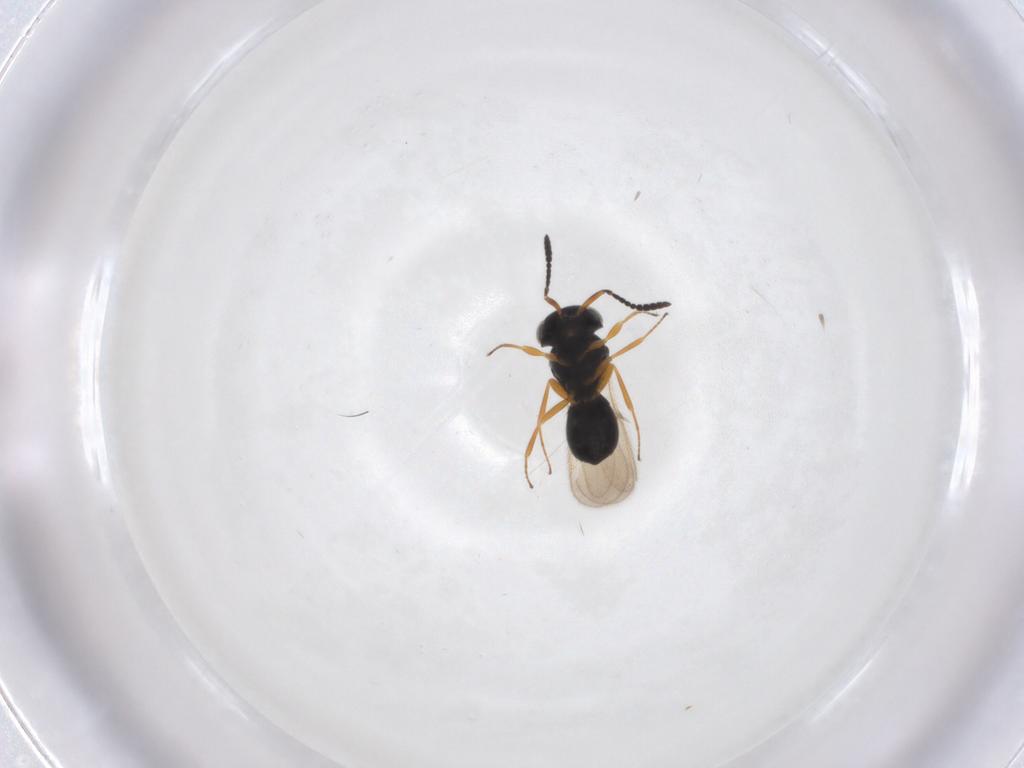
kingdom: Animalia
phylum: Arthropoda
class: Insecta
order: Hymenoptera
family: Scelionidae
